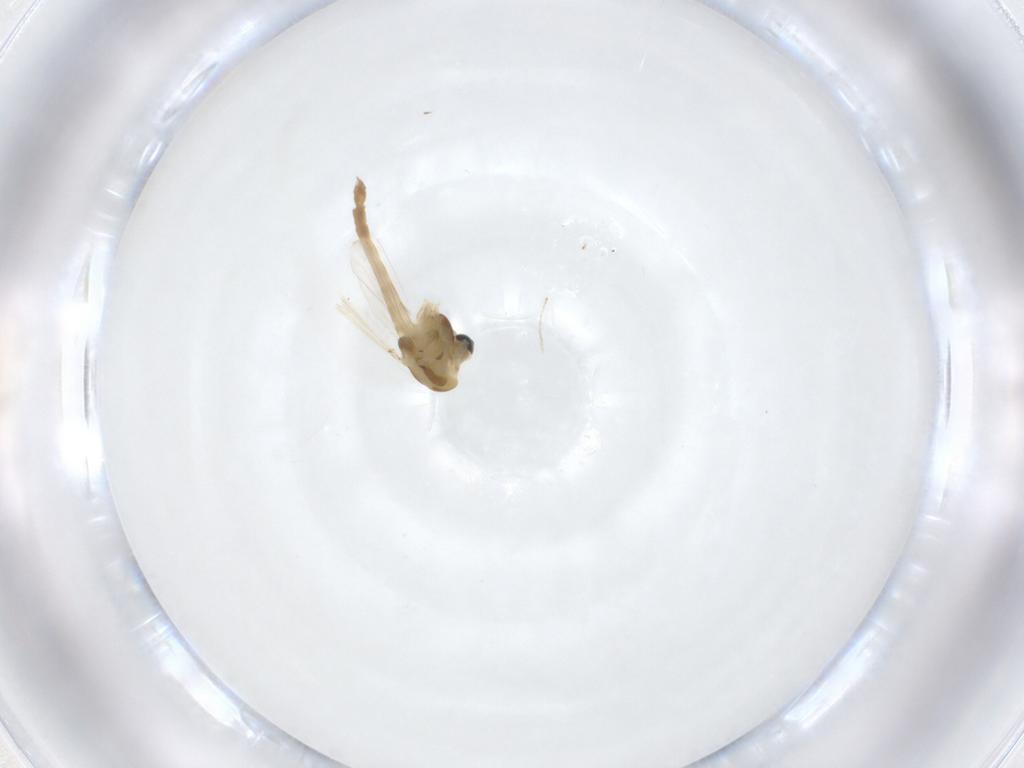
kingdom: Animalia
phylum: Arthropoda
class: Insecta
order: Diptera
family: Chironomidae
